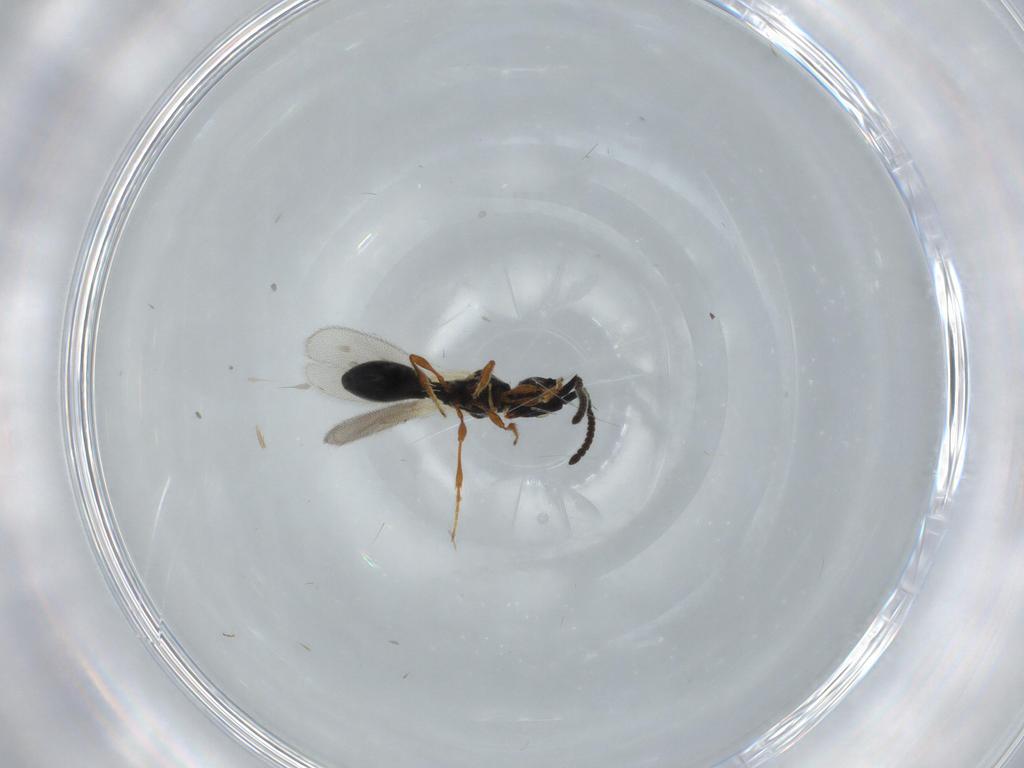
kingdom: Animalia
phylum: Arthropoda
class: Insecta
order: Hymenoptera
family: Diapriidae
